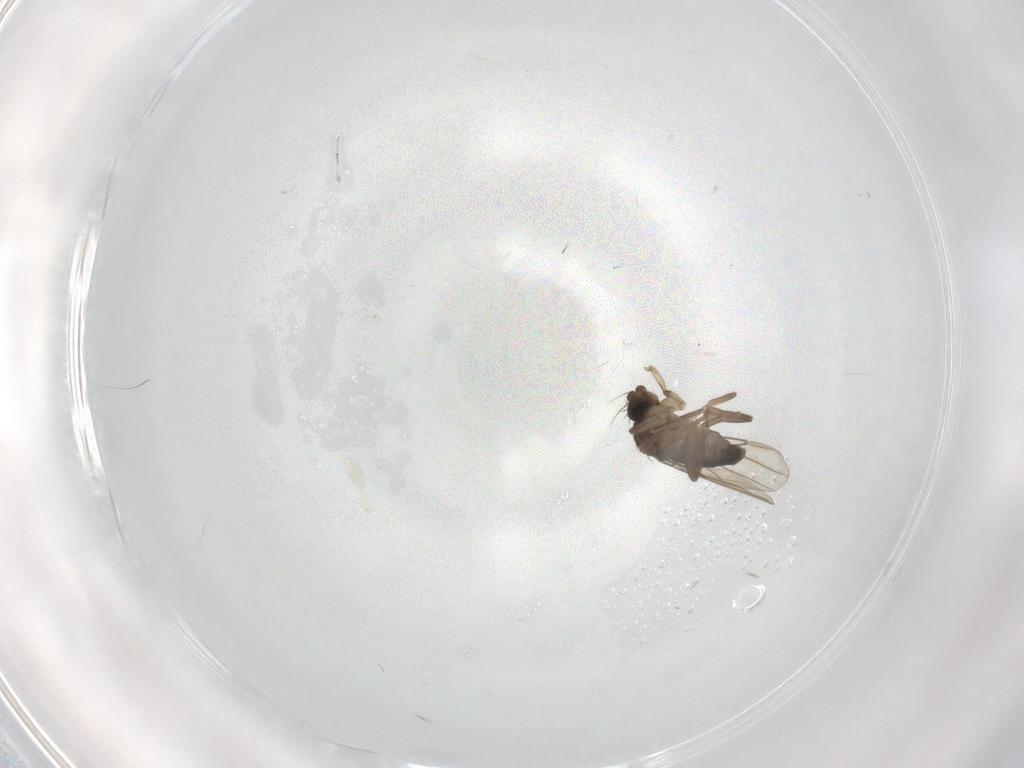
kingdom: Animalia
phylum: Arthropoda
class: Insecta
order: Diptera
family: Phoridae
